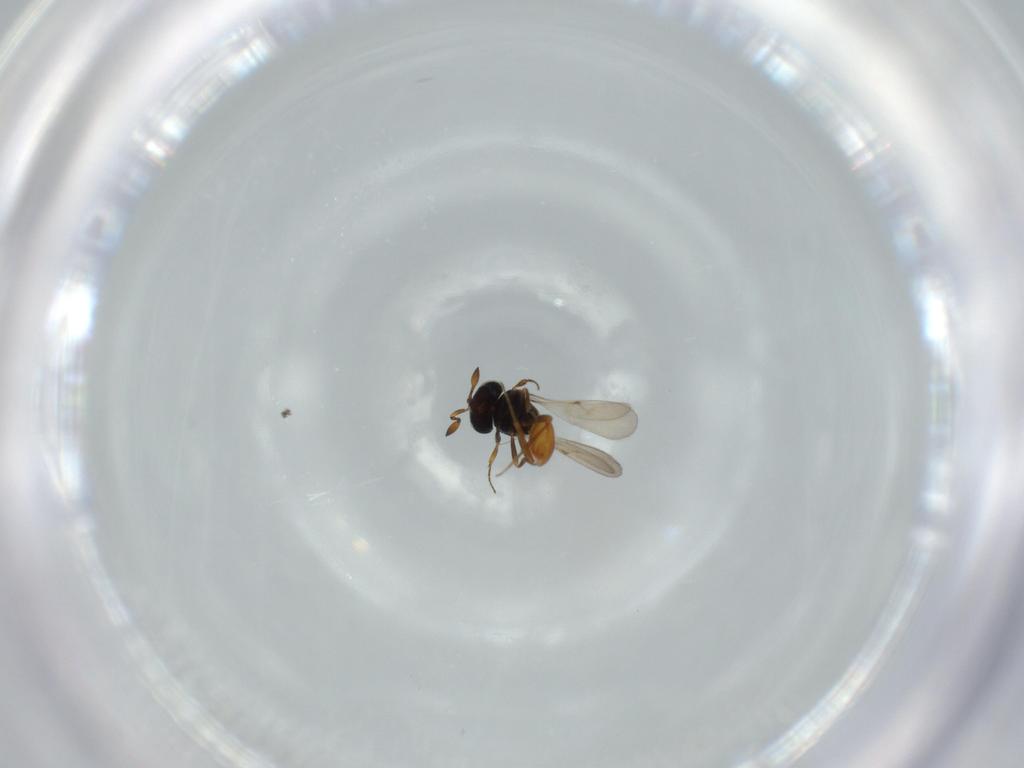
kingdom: Animalia
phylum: Arthropoda
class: Insecta
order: Hymenoptera
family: Scelionidae
